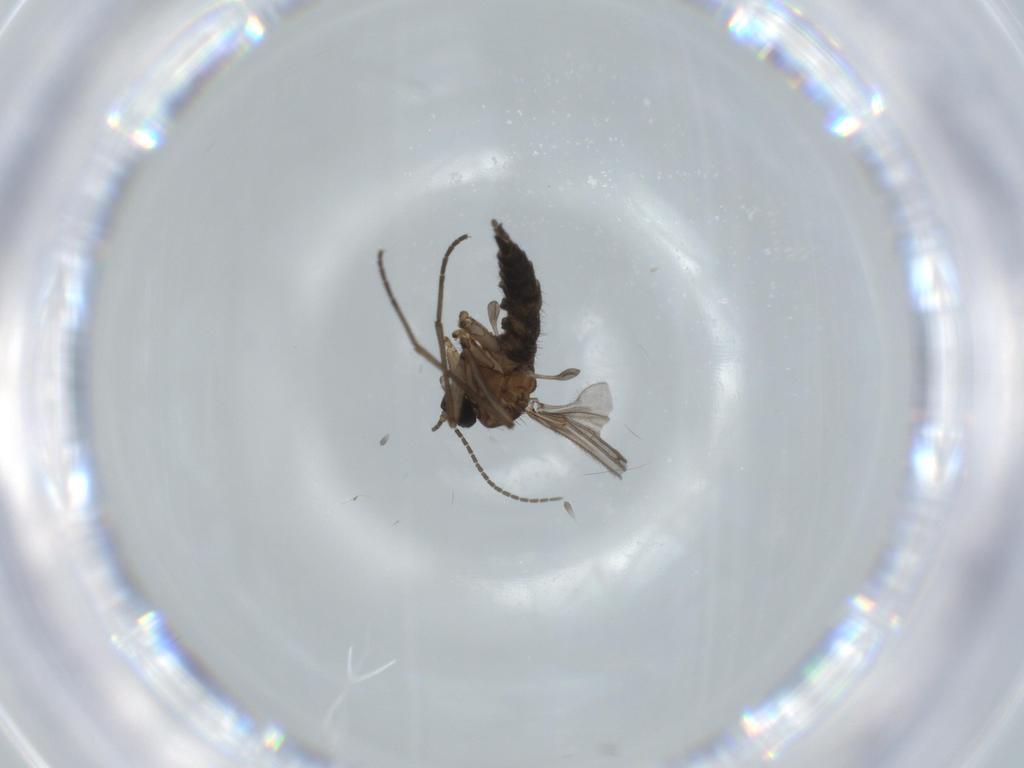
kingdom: Animalia
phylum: Arthropoda
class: Insecta
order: Diptera
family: Sciaridae
